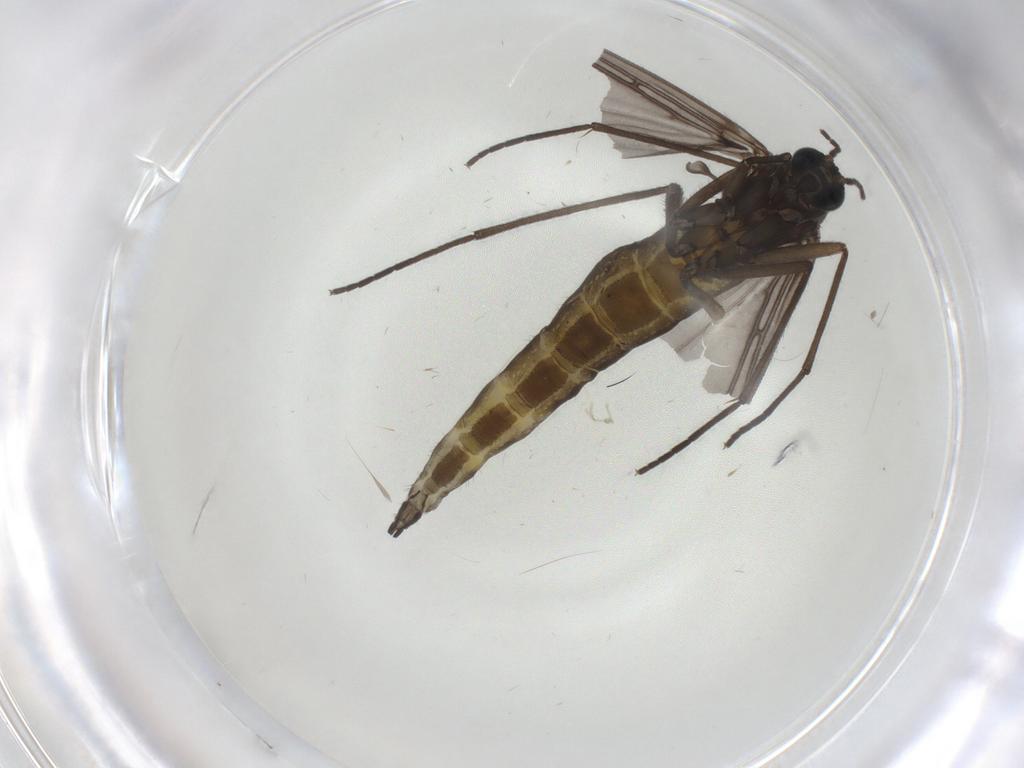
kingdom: Animalia
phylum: Arthropoda
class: Insecta
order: Diptera
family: Sciaridae
